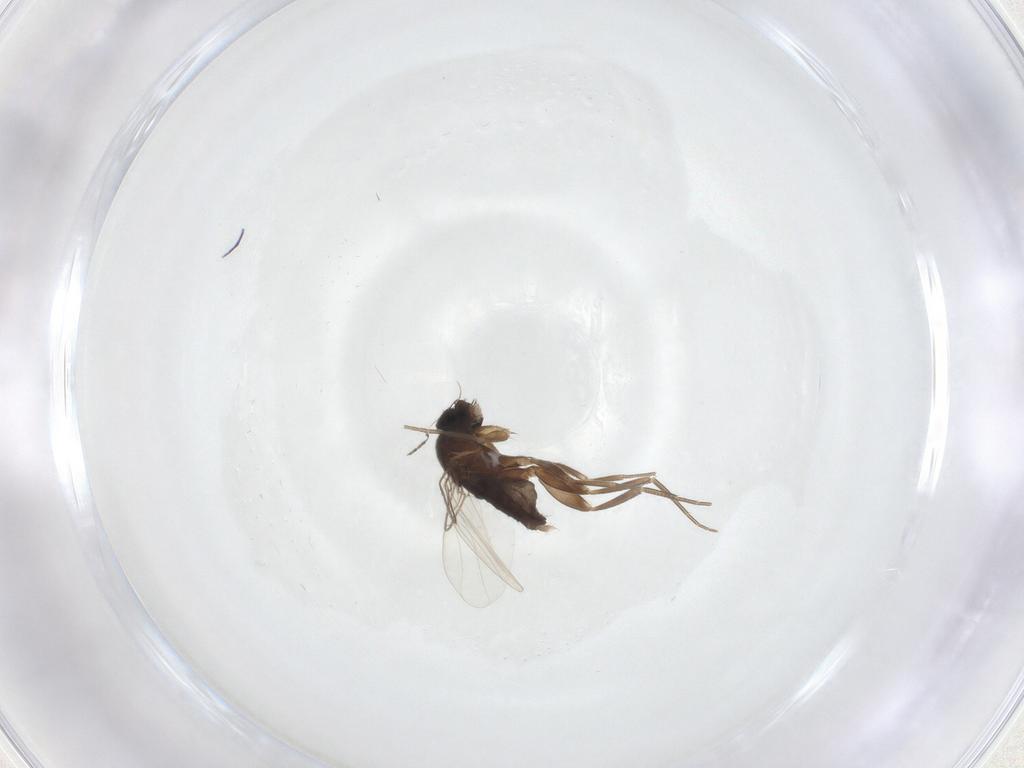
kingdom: Animalia
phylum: Arthropoda
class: Insecta
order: Diptera
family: Phoridae
